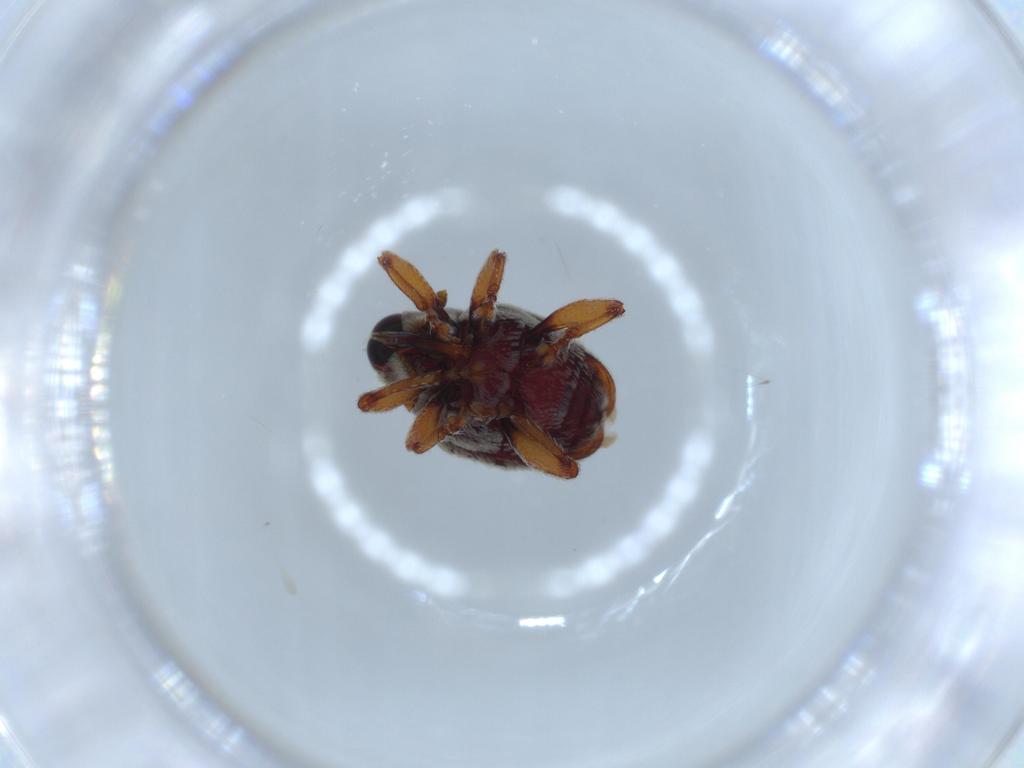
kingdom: Animalia
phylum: Arthropoda
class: Insecta
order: Coleoptera
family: Curculionidae
